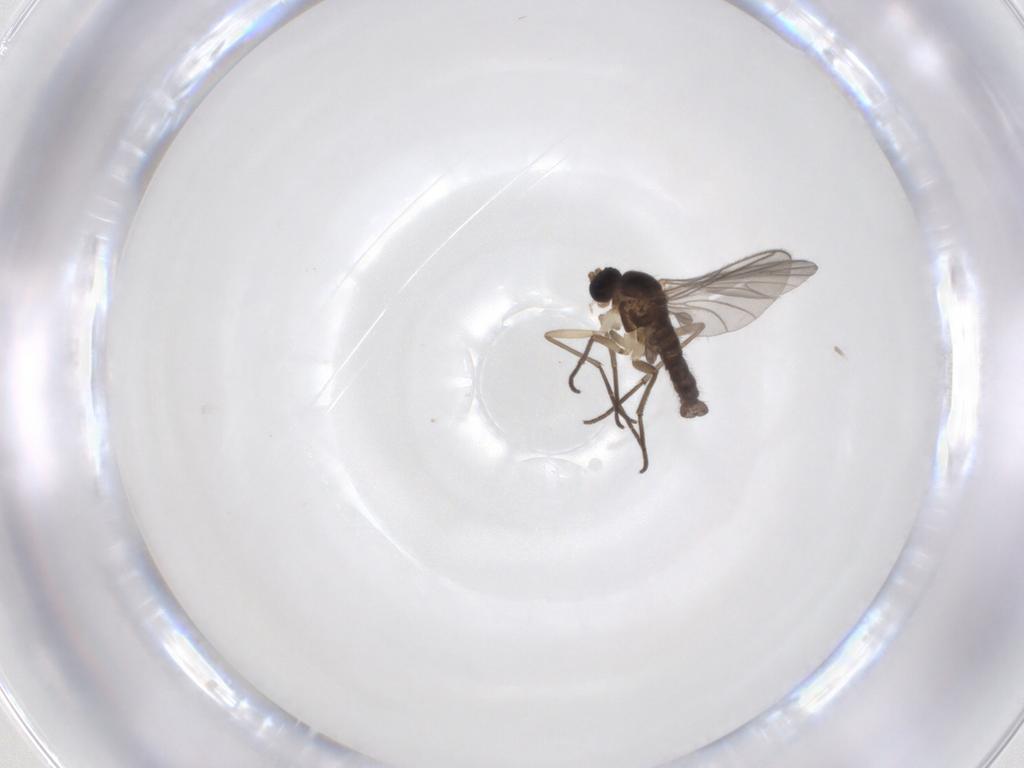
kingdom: Animalia
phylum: Arthropoda
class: Insecta
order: Diptera
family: Sciaridae
